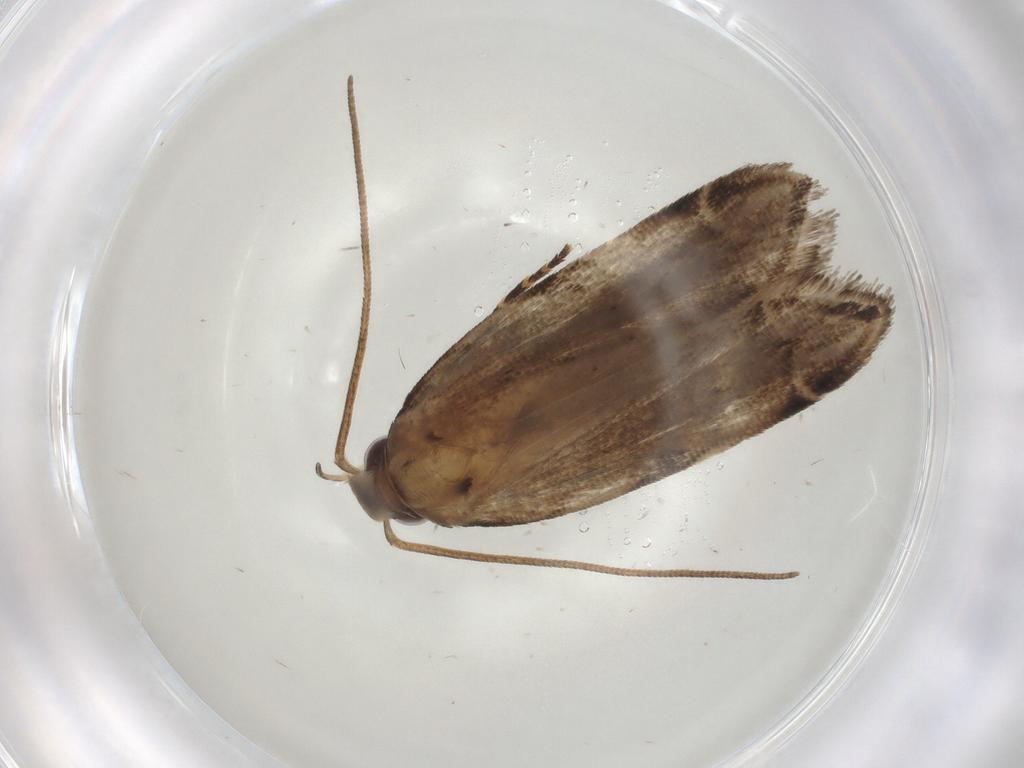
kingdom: Animalia
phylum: Arthropoda
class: Insecta
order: Lepidoptera
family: Gelechiidae
